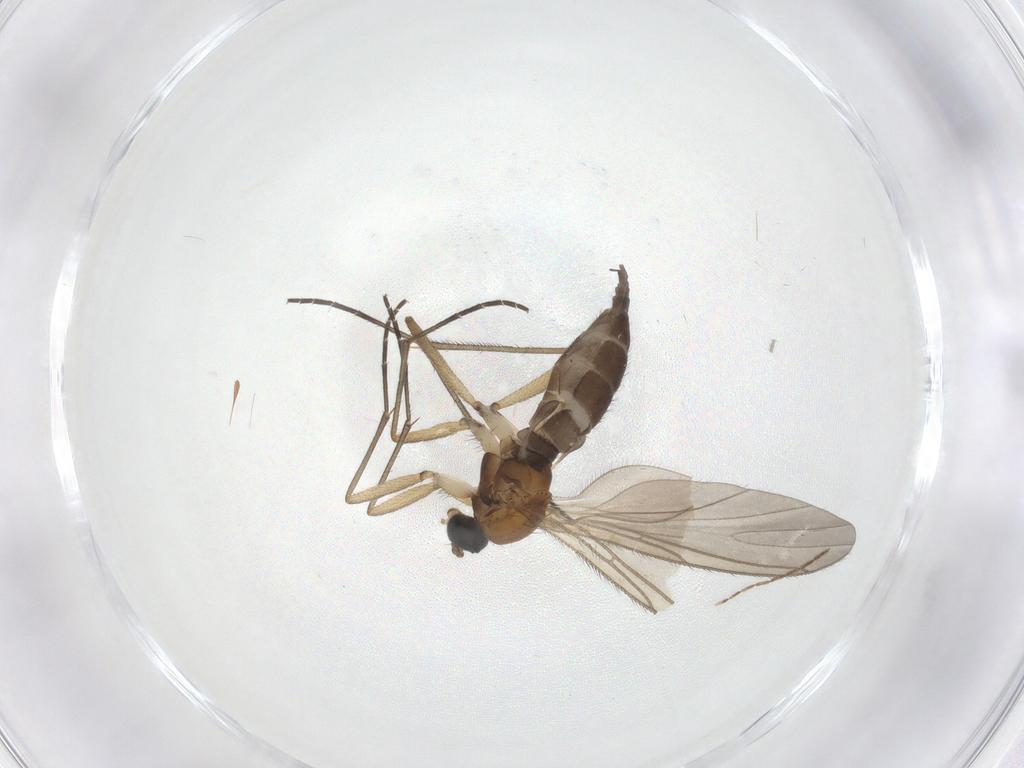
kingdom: Animalia
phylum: Arthropoda
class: Insecta
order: Diptera
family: Sciaridae
